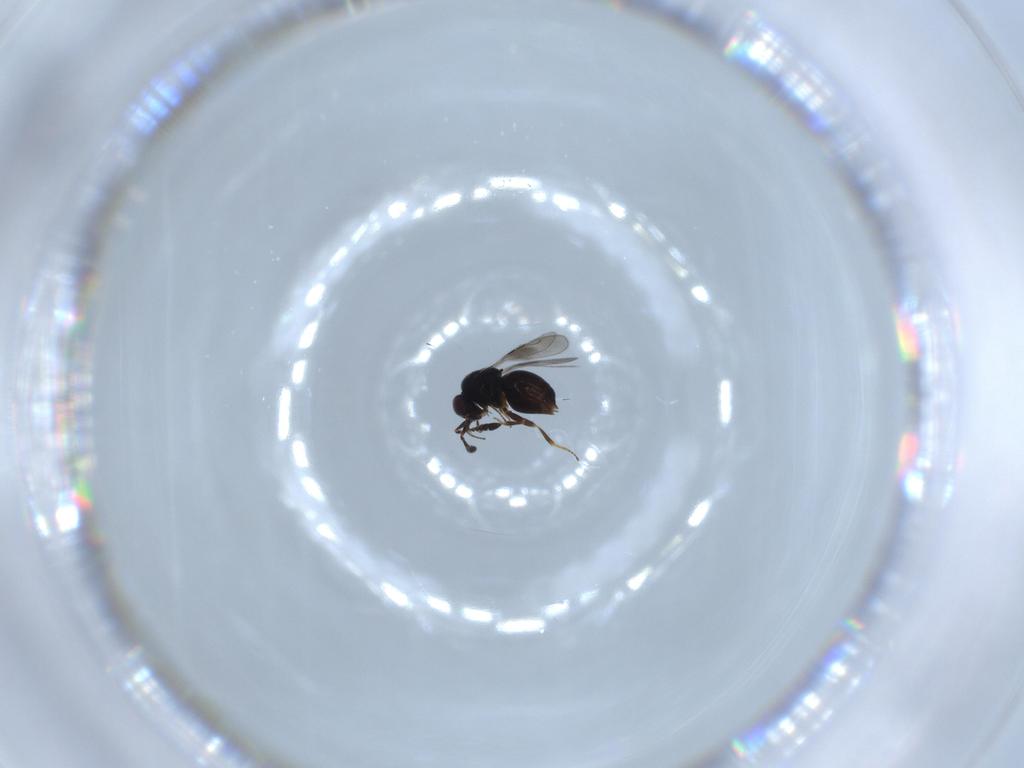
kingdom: Animalia
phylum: Arthropoda
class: Insecta
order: Hymenoptera
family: Ceraphronidae
